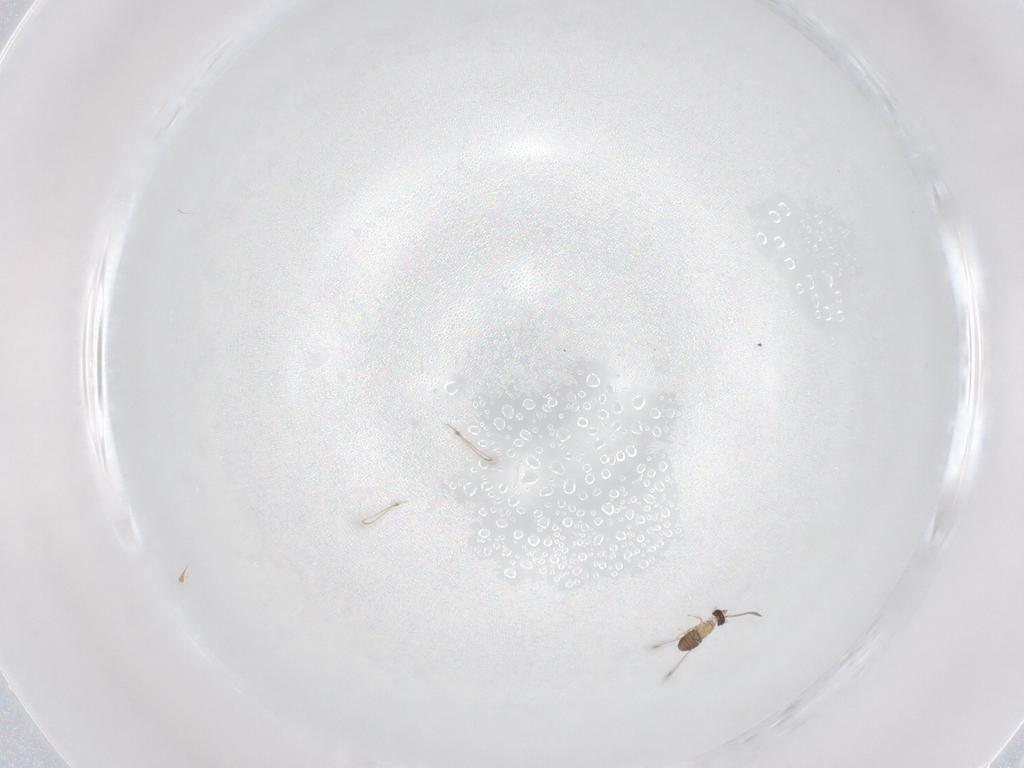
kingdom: Animalia
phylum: Arthropoda
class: Insecta
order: Hymenoptera
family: Mymaridae
